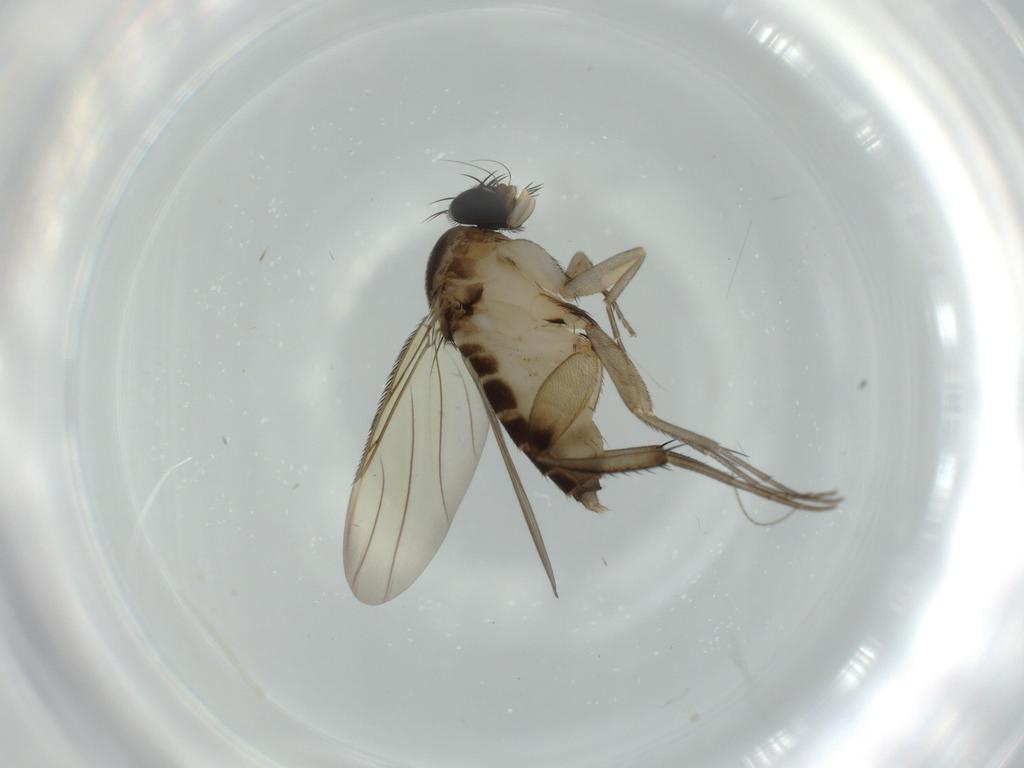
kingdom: Animalia
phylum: Arthropoda
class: Insecta
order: Diptera
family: Phoridae
